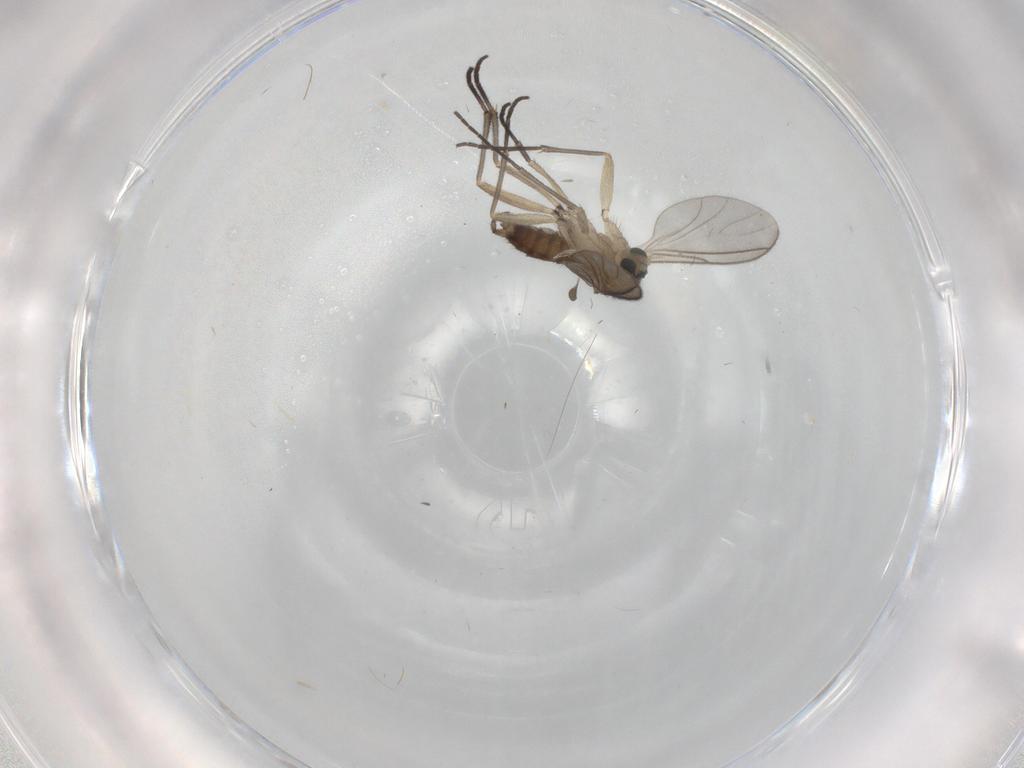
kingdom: Animalia
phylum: Arthropoda
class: Insecta
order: Diptera
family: Sciaridae
